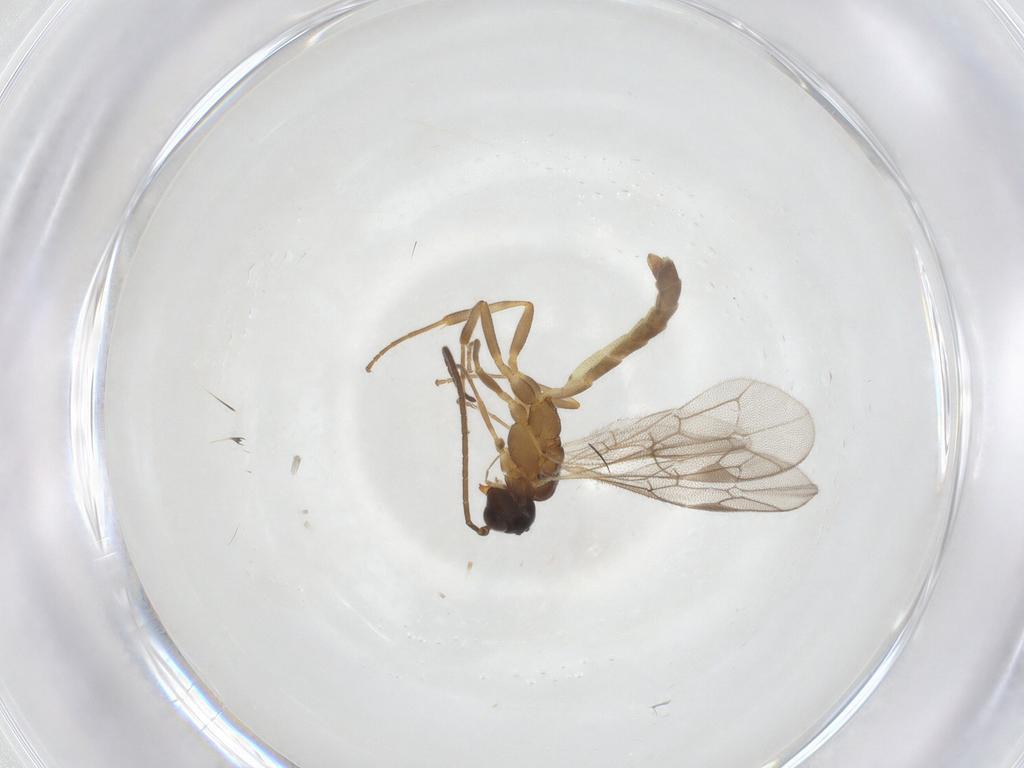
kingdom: Animalia
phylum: Arthropoda
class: Insecta
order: Hymenoptera
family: Ichneumonidae
